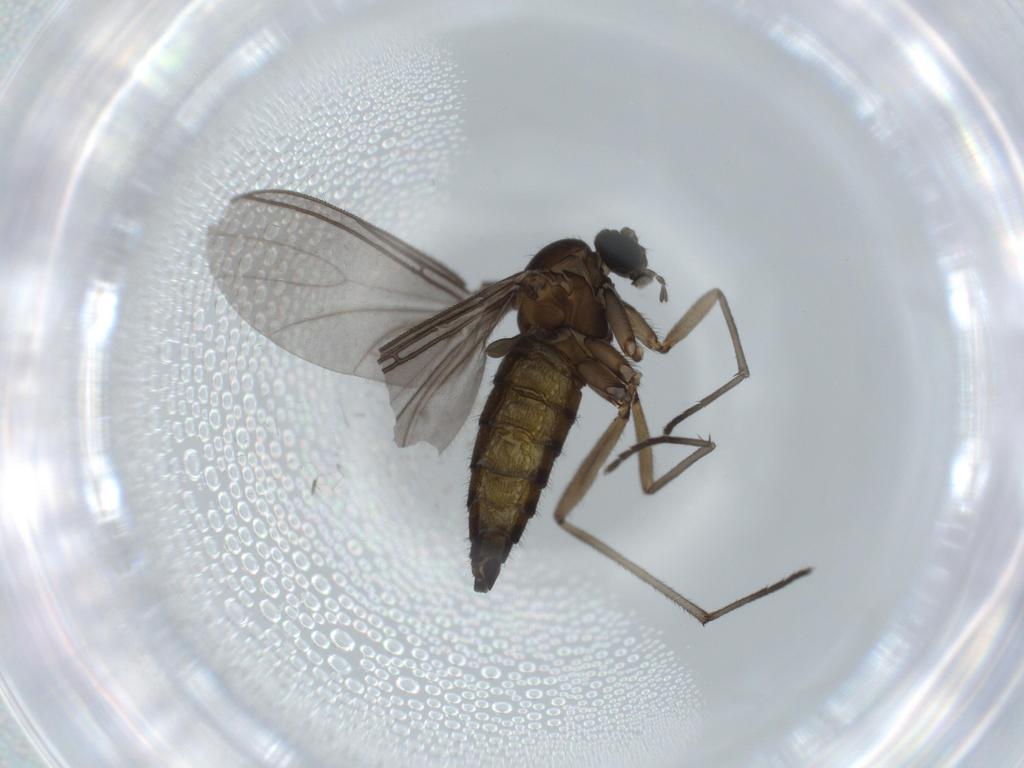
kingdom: Animalia
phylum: Arthropoda
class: Insecta
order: Diptera
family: Sciaridae
